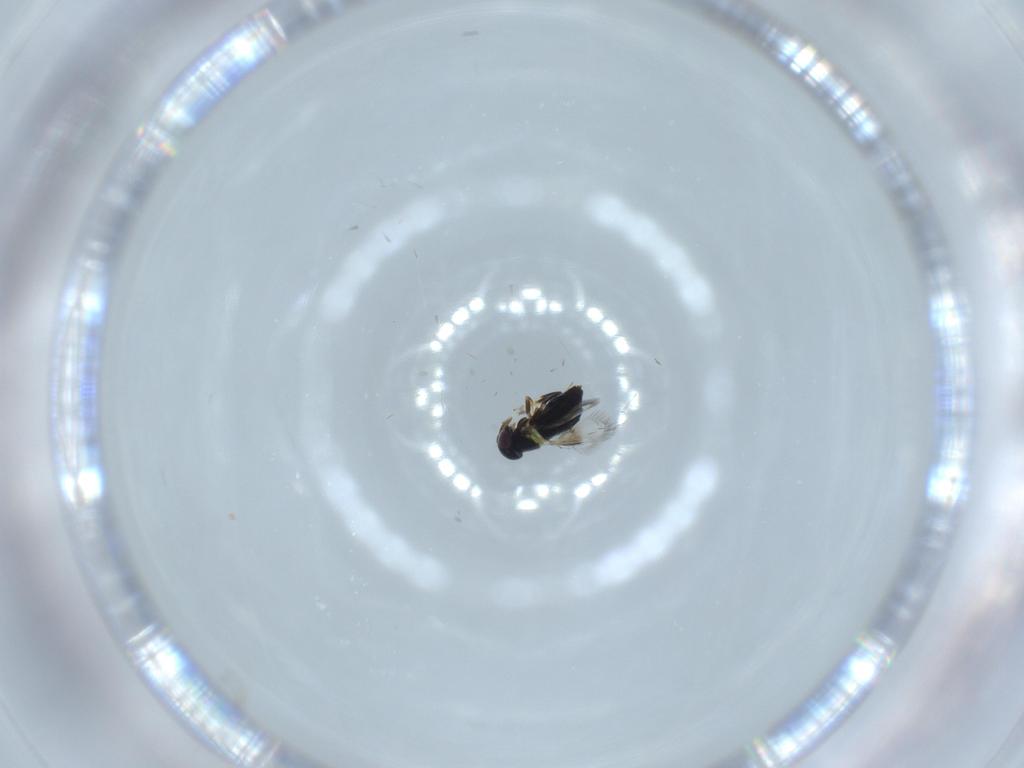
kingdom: Animalia
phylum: Arthropoda
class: Insecta
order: Hymenoptera
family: Signiphoridae
